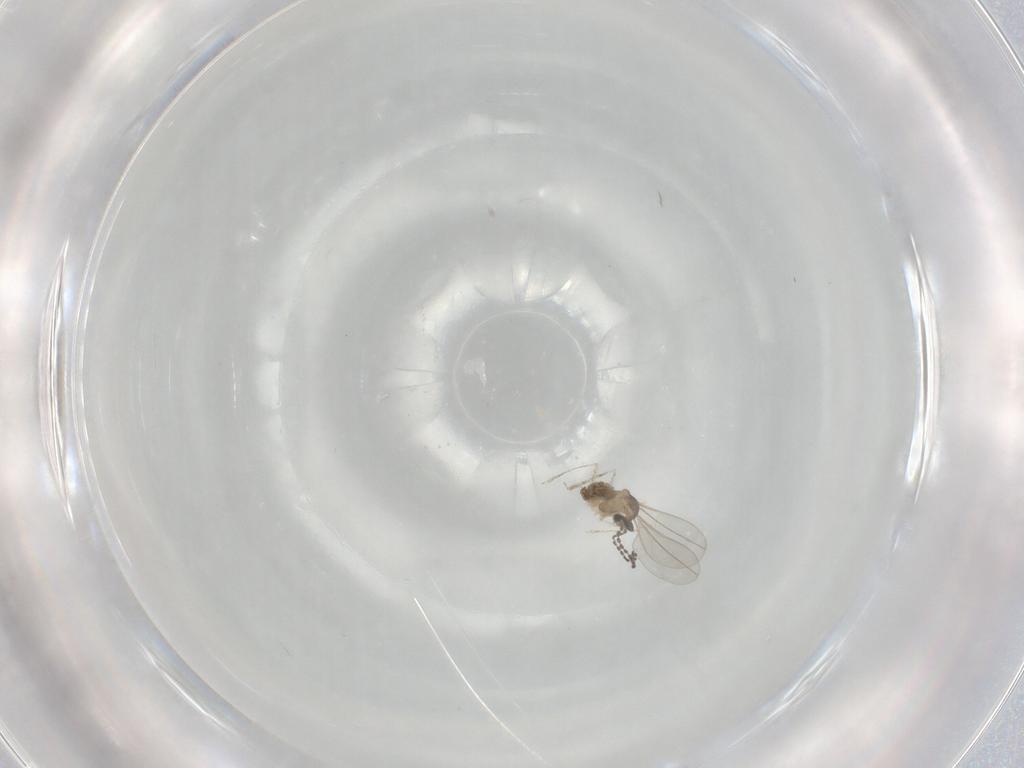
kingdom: Animalia
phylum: Arthropoda
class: Insecta
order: Diptera
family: Cecidomyiidae
